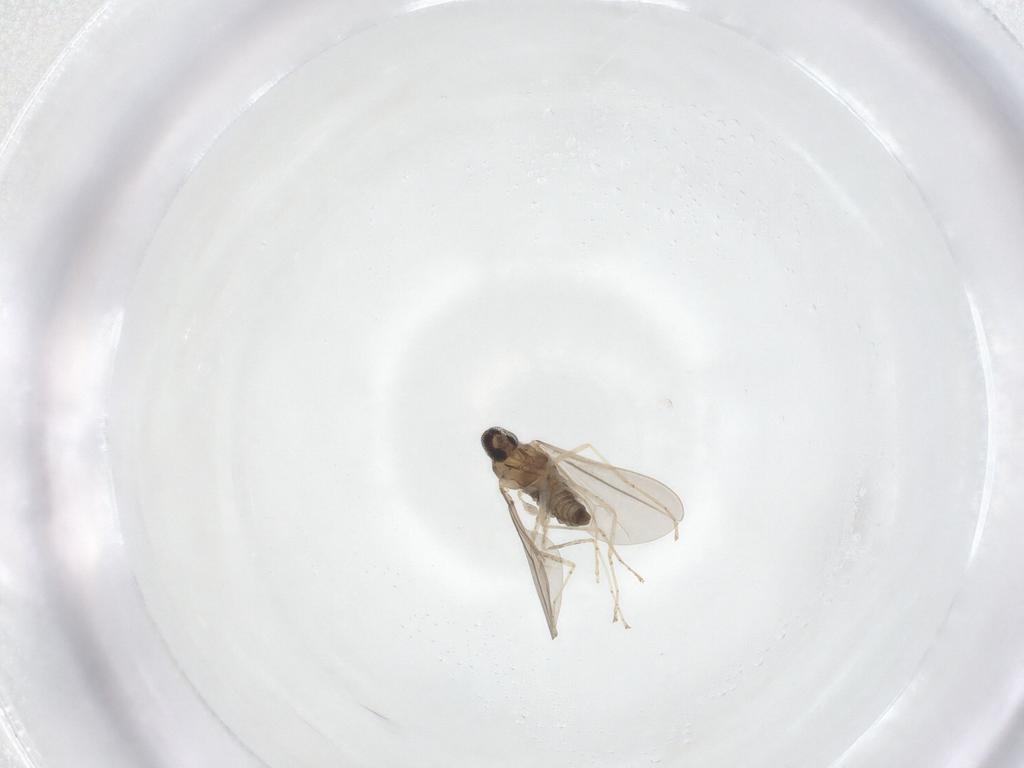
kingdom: Animalia
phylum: Arthropoda
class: Insecta
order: Diptera
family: Cecidomyiidae
